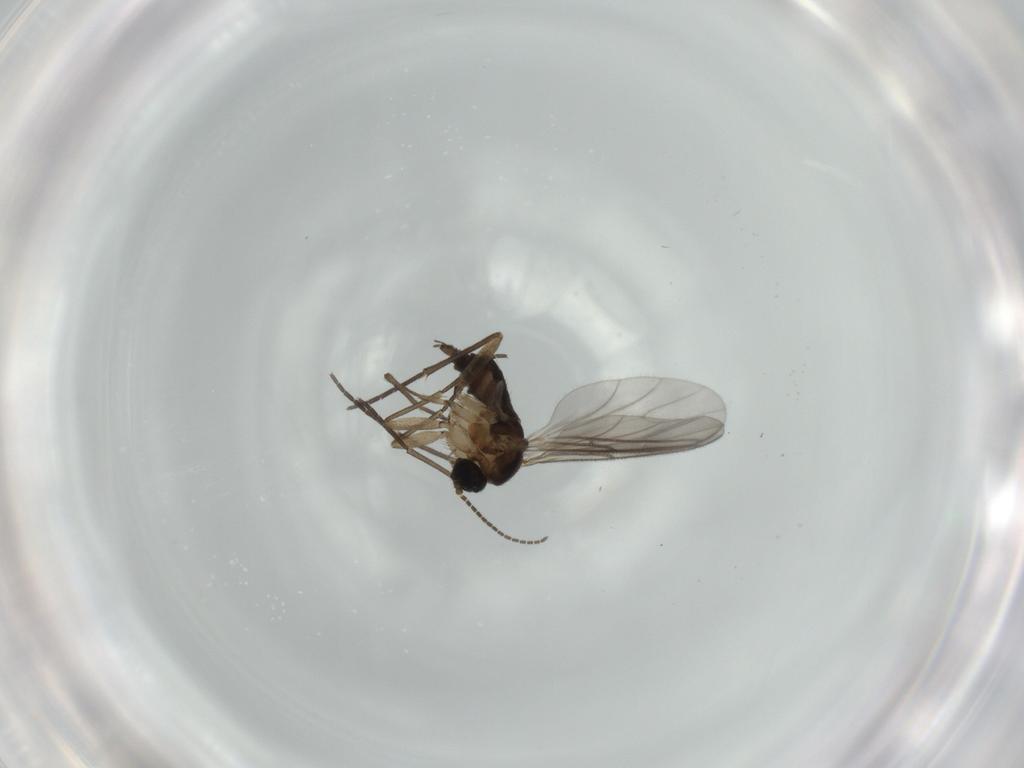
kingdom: Animalia
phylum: Arthropoda
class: Insecta
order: Diptera
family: Sciaridae
